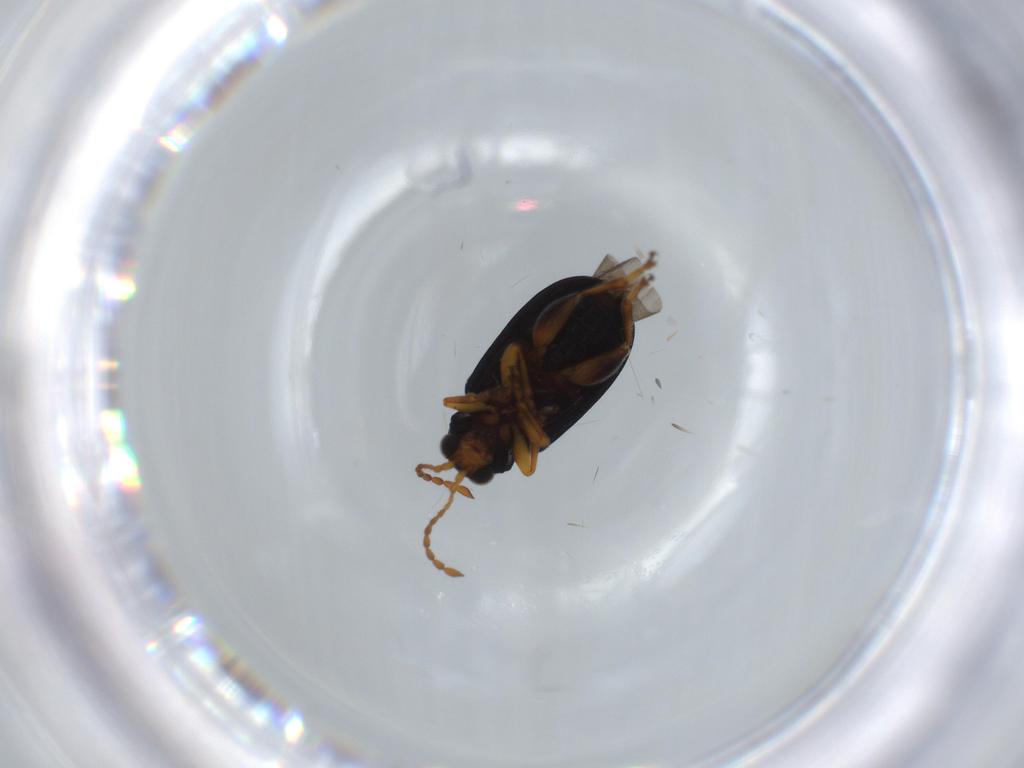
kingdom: Animalia
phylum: Arthropoda
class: Insecta
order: Coleoptera
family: Chrysomelidae
